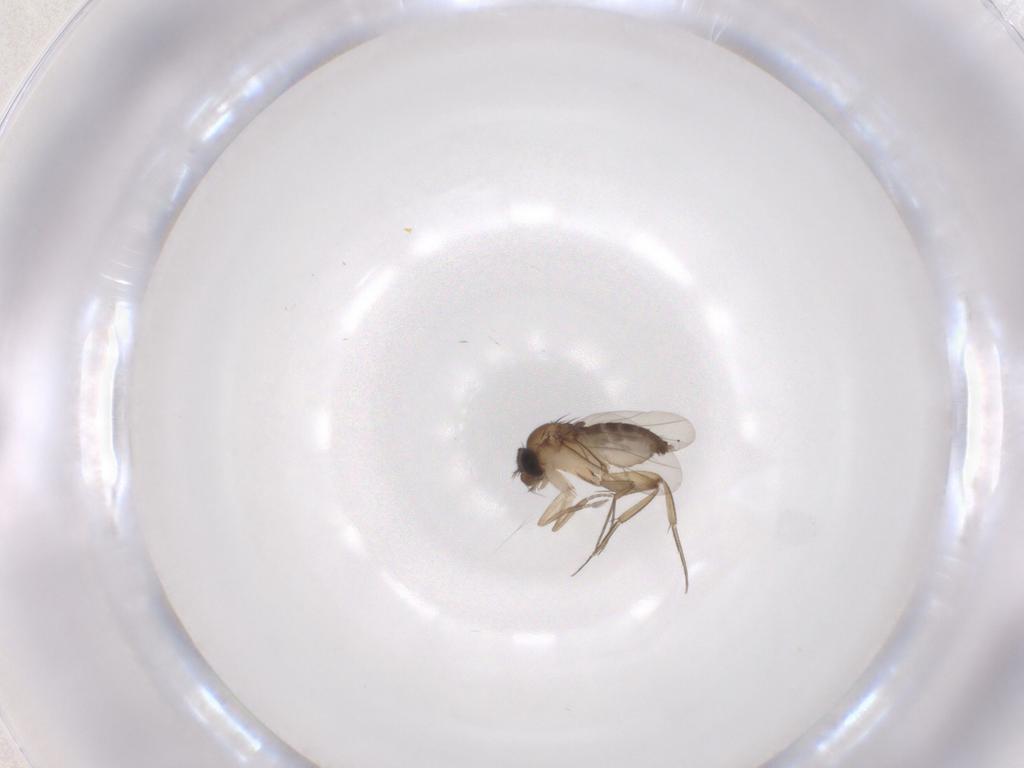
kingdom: Animalia
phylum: Arthropoda
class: Insecta
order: Diptera
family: Phoridae
